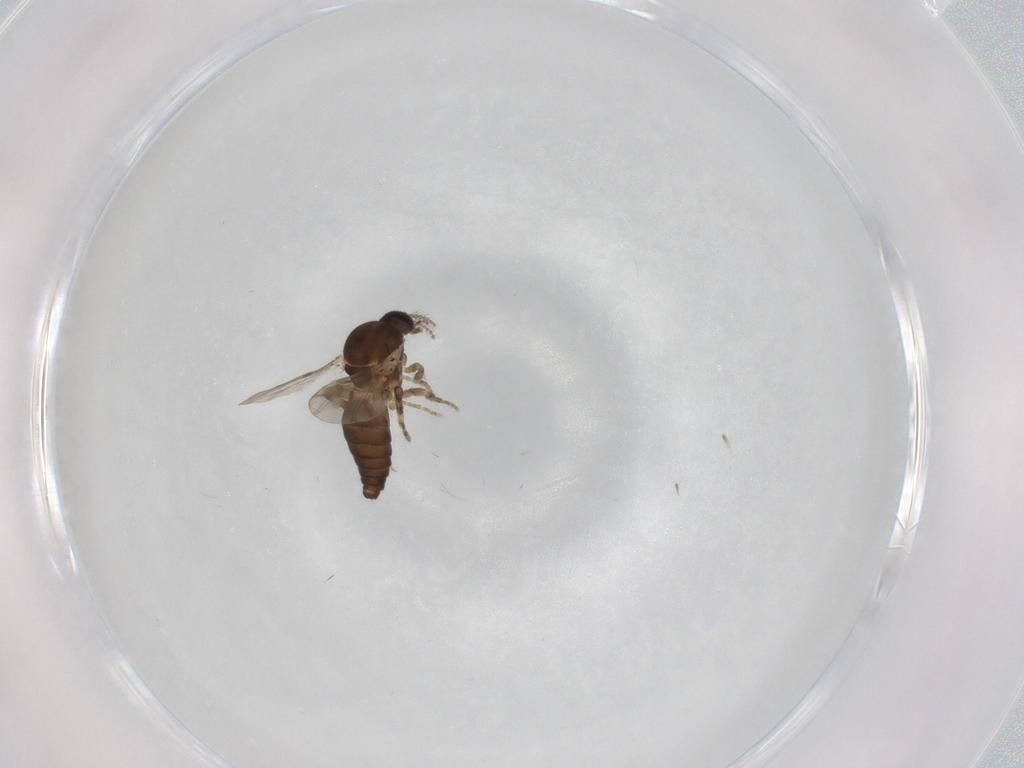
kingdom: Animalia
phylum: Arthropoda
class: Insecta
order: Diptera
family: Ceratopogonidae
